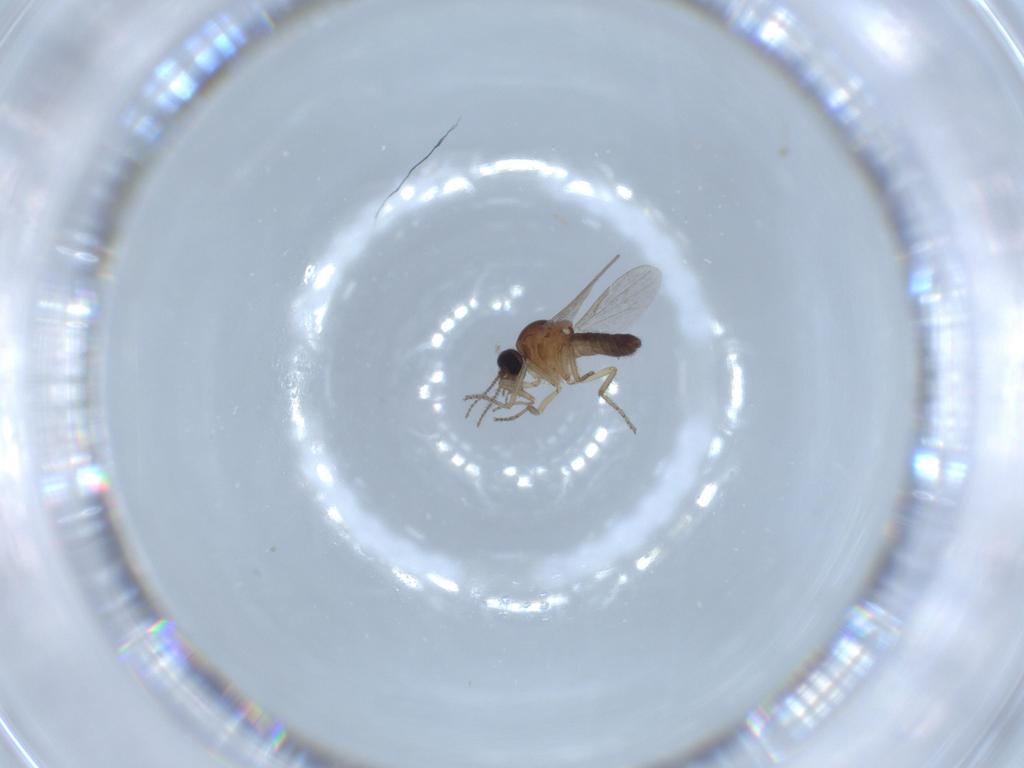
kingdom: Animalia
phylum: Arthropoda
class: Insecta
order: Diptera
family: Ceratopogonidae
